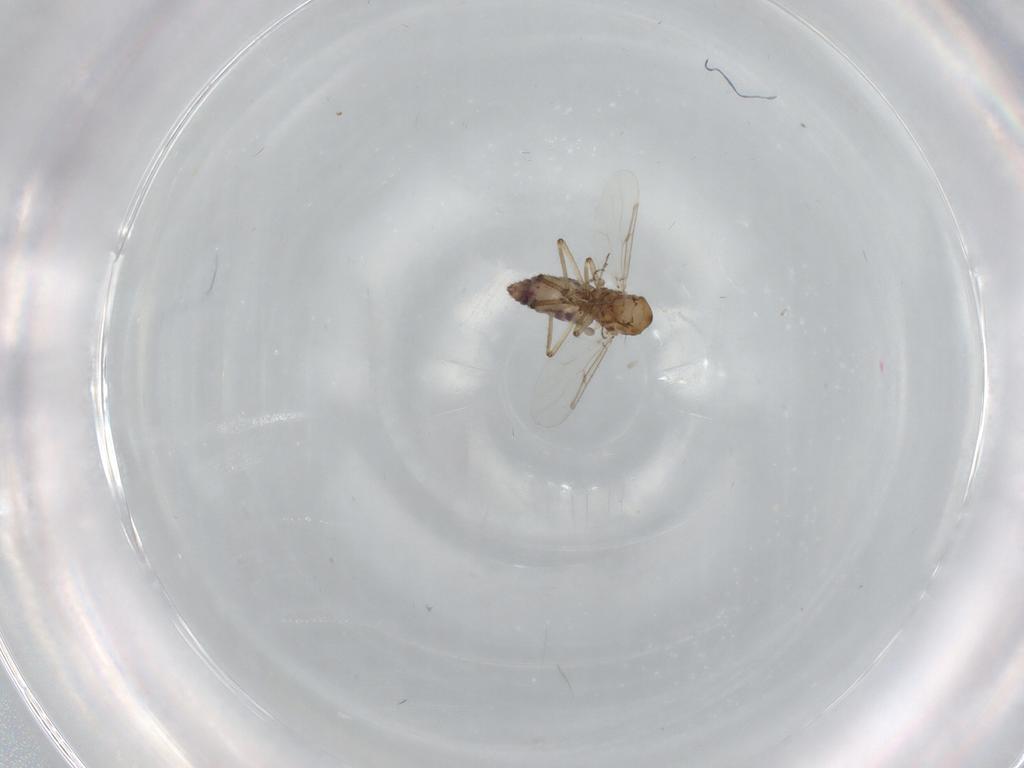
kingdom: Animalia
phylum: Arthropoda
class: Insecta
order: Diptera
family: Ceratopogonidae
